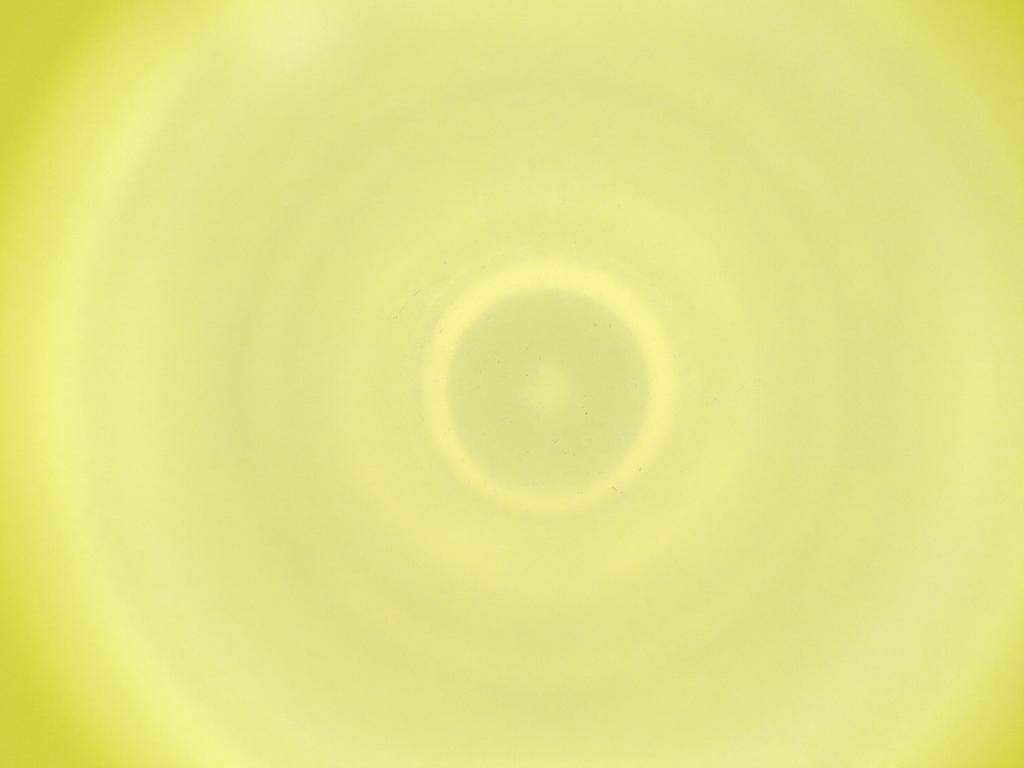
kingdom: Animalia
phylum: Arthropoda
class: Insecta
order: Diptera
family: Cecidomyiidae
